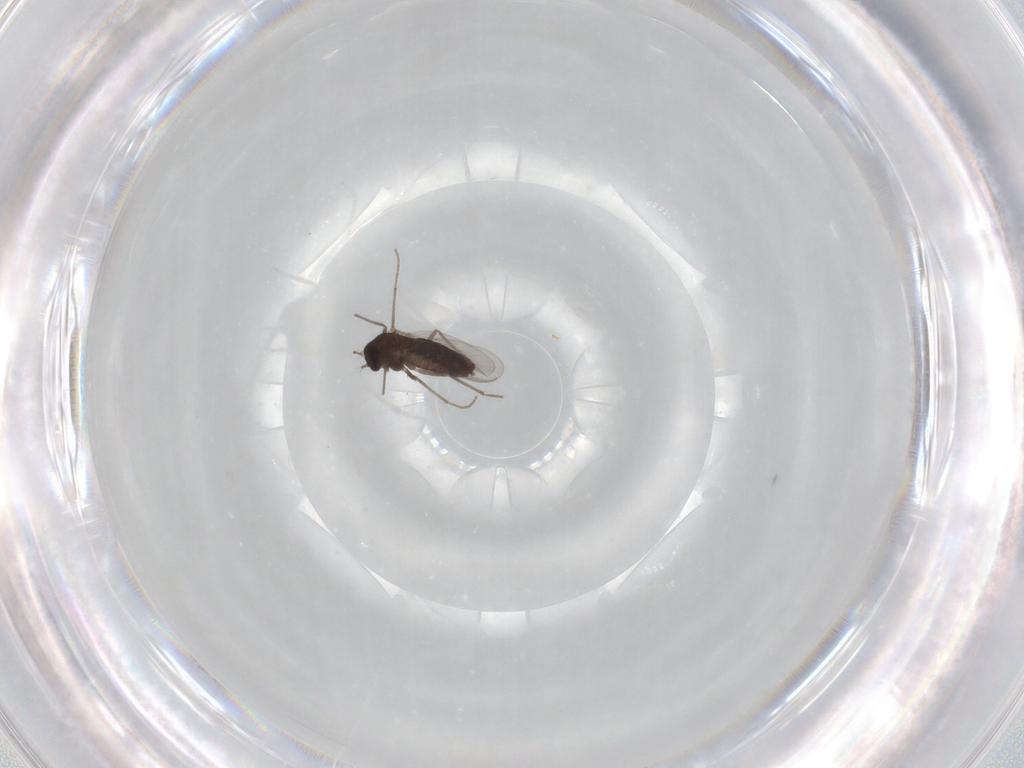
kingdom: Animalia
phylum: Arthropoda
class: Insecta
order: Diptera
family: Chironomidae
